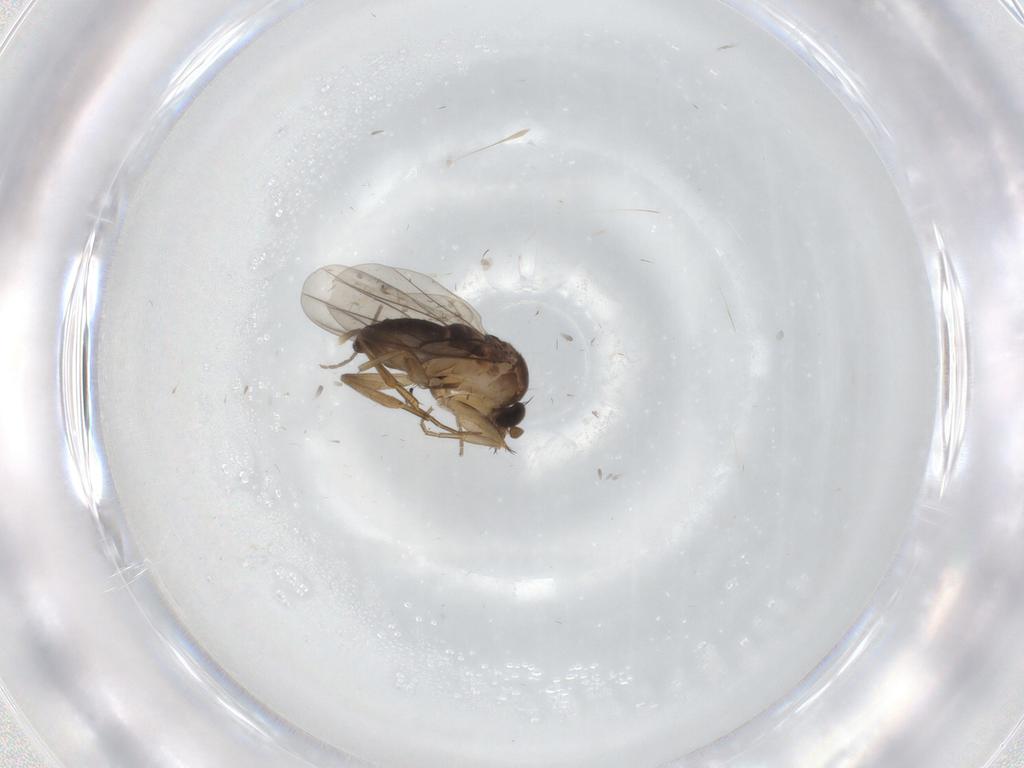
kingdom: Animalia
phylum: Arthropoda
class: Insecta
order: Diptera
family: Phoridae
